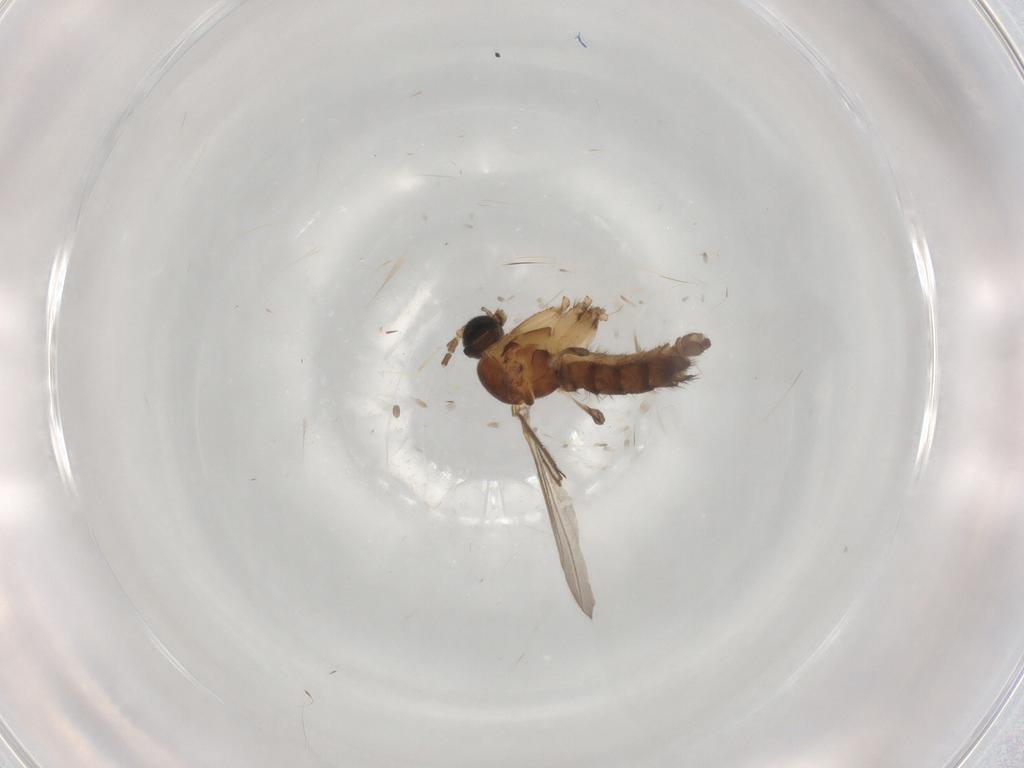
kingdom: Animalia
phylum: Arthropoda
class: Insecta
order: Diptera
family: Sciaridae
